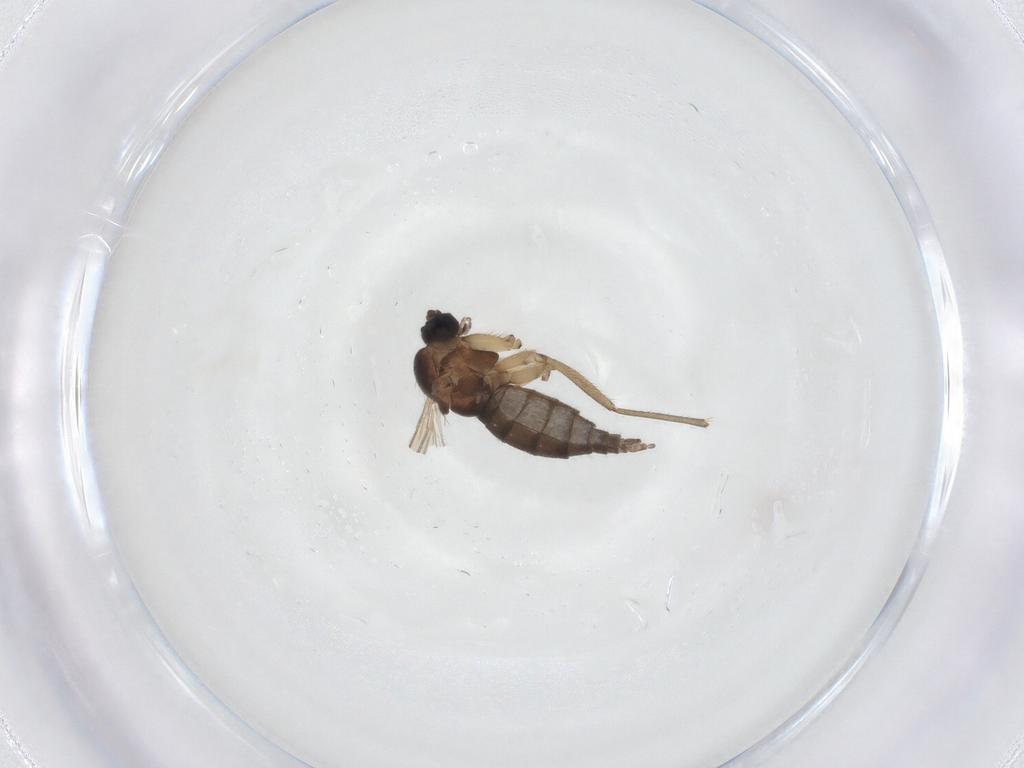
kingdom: Animalia
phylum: Arthropoda
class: Insecta
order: Diptera
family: Sciaridae
